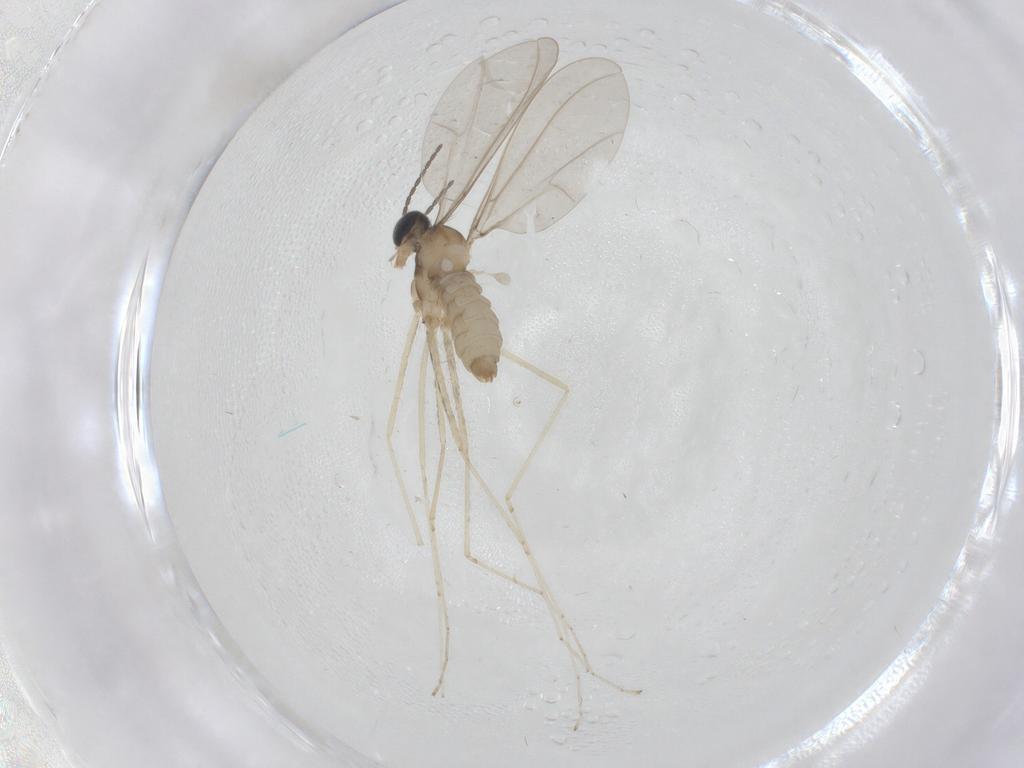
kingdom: Animalia
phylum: Arthropoda
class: Insecta
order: Diptera
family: Cecidomyiidae
